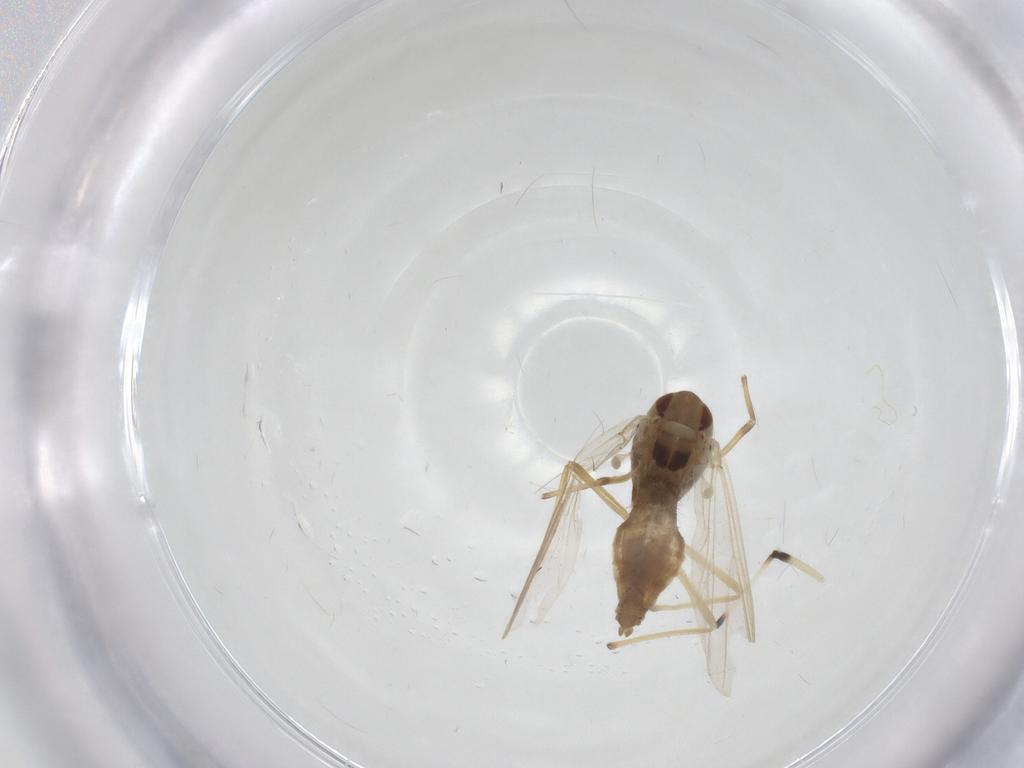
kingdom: Animalia
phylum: Arthropoda
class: Insecta
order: Diptera
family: Chironomidae
